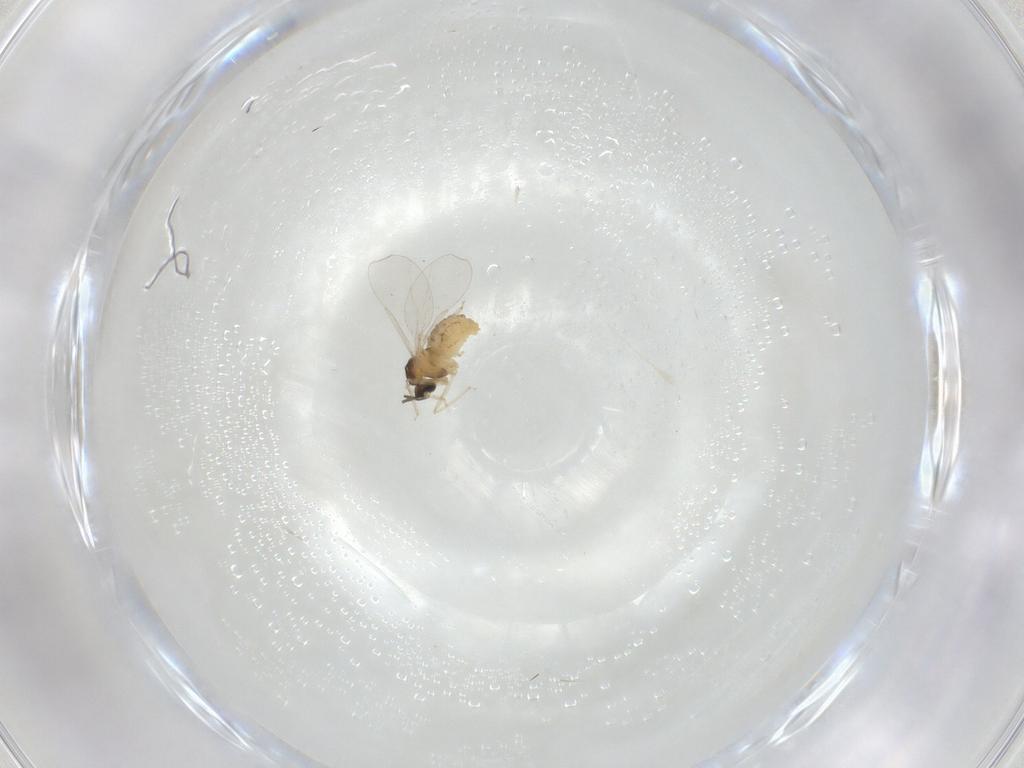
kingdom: Animalia
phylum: Arthropoda
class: Insecta
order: Diptera
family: Cecidomyiidae
